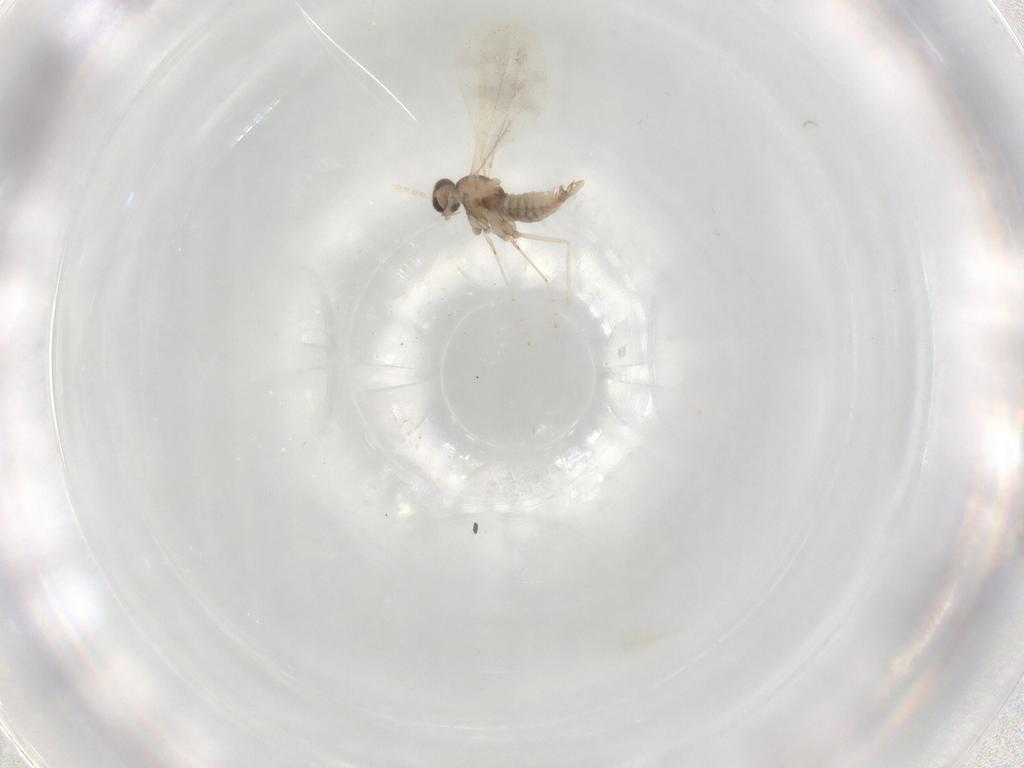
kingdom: Animalia
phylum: Arthropoda
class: Insecta
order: Diptera
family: Cecidomyiidae
